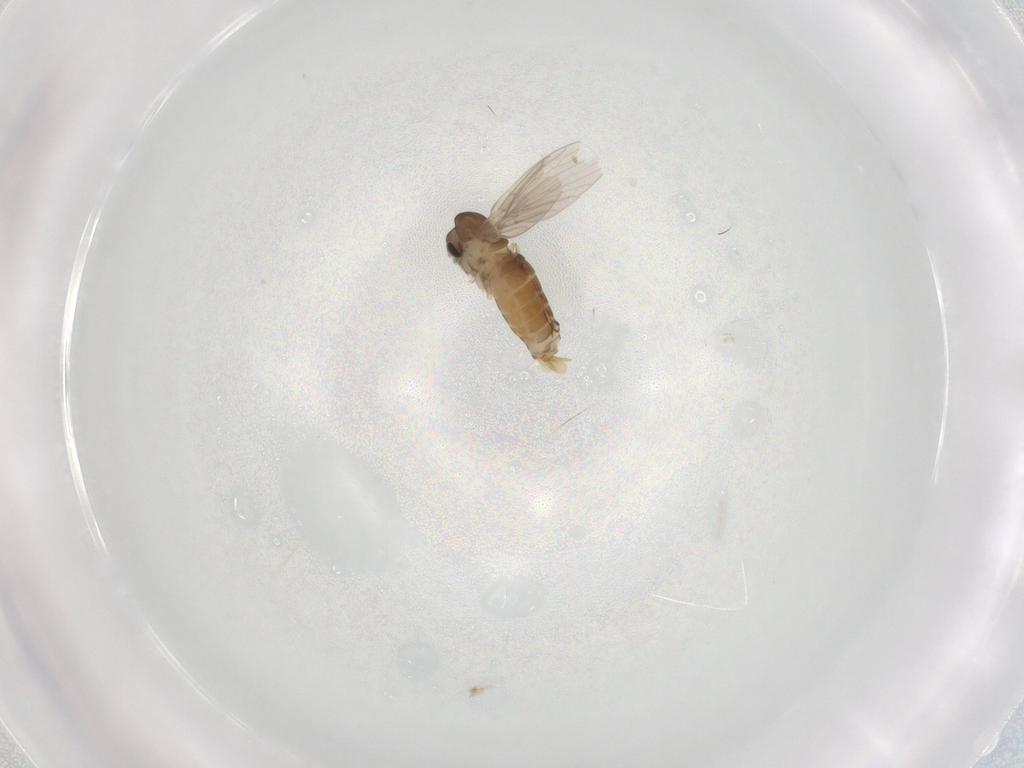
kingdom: Animalia
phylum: Arthropoda
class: Insecta
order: Diptera
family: Psychodidae
